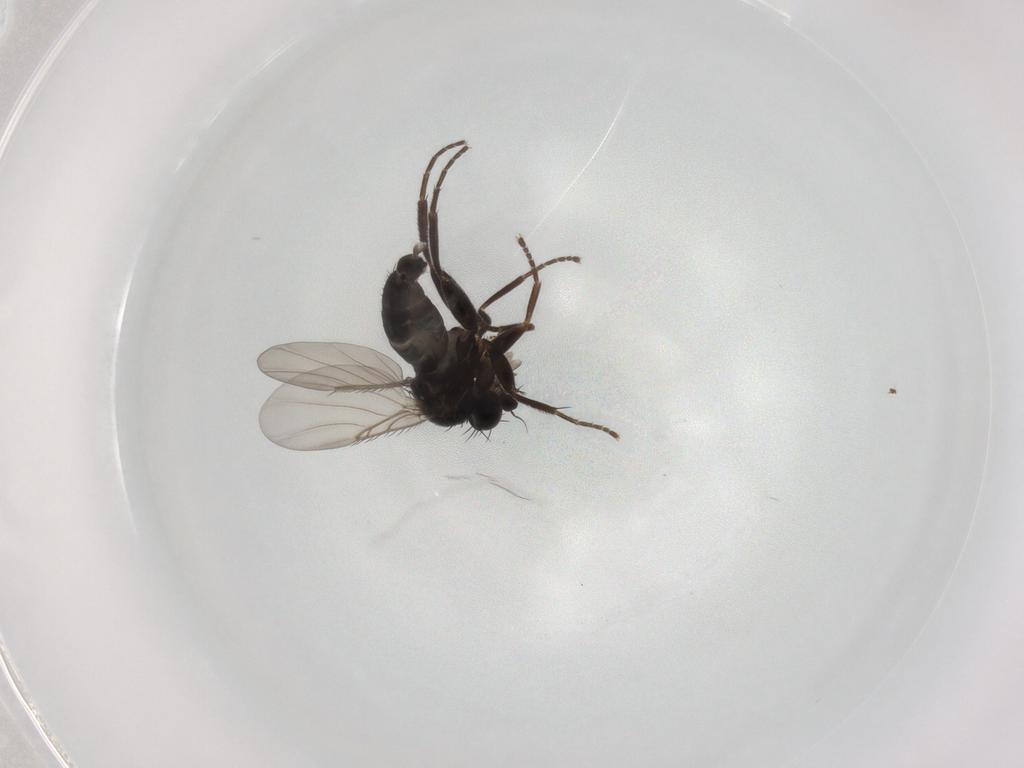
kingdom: Animalia
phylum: Arthropoda
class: Insecta
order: Diptera
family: Phoridae
